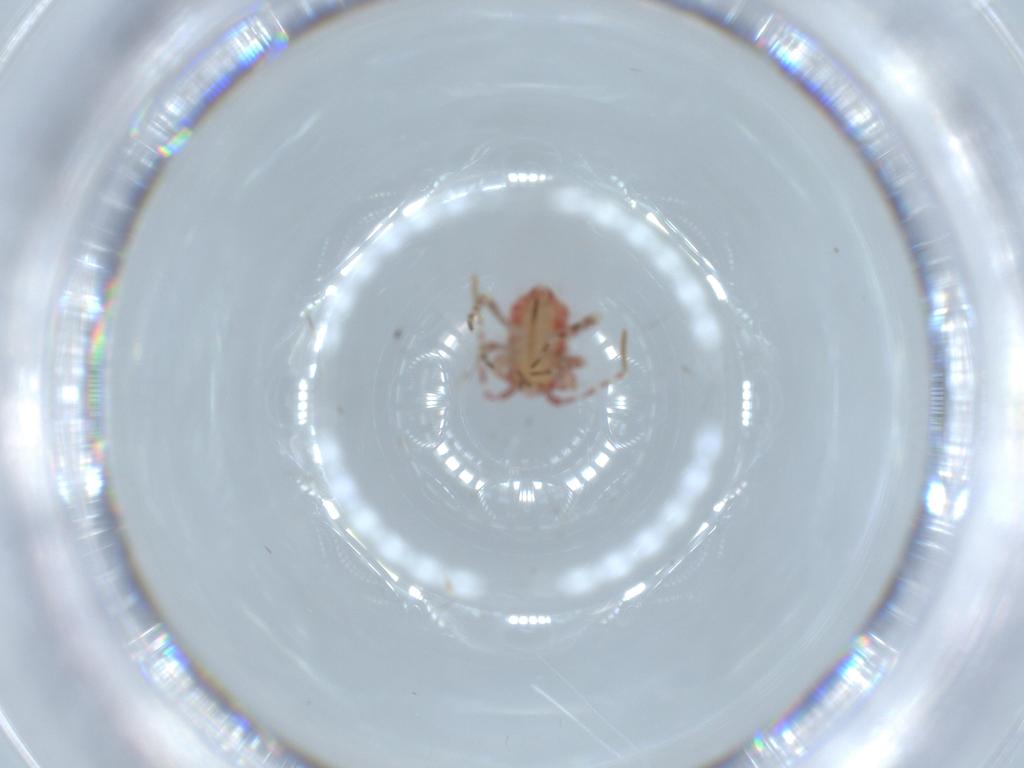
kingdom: Animalia
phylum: Arthropoda
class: Insecta
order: Hemiptera
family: Miridae
